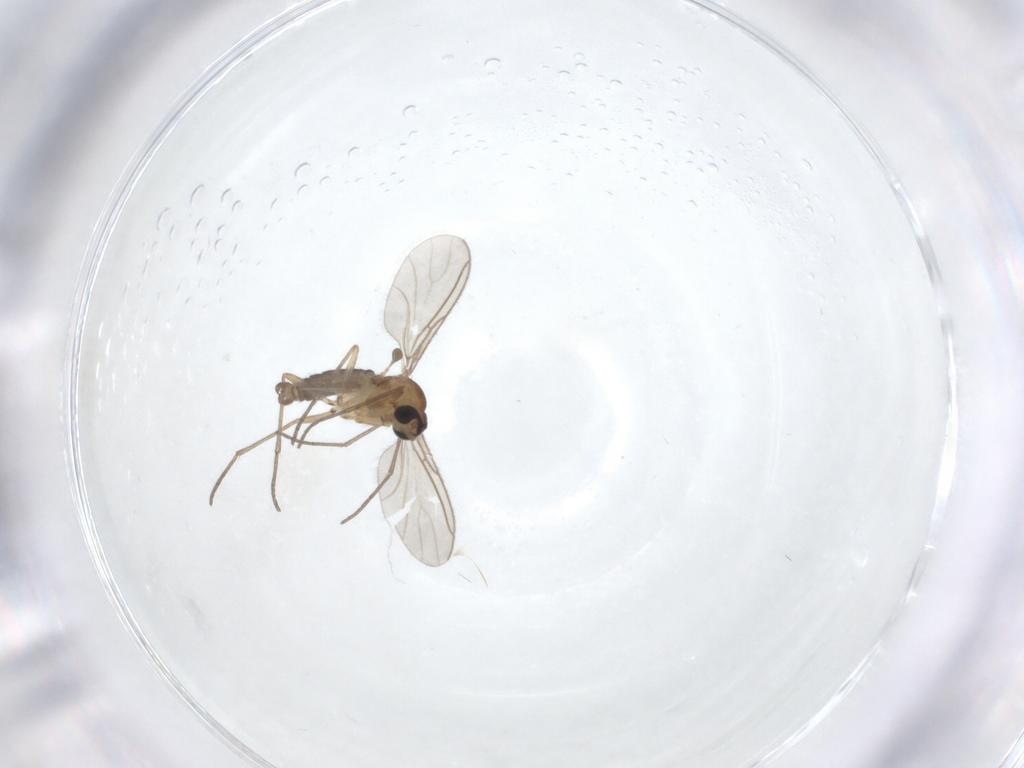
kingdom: Animalia
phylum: Arthropoda
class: Insecta
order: Diptera
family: Sciaridae
